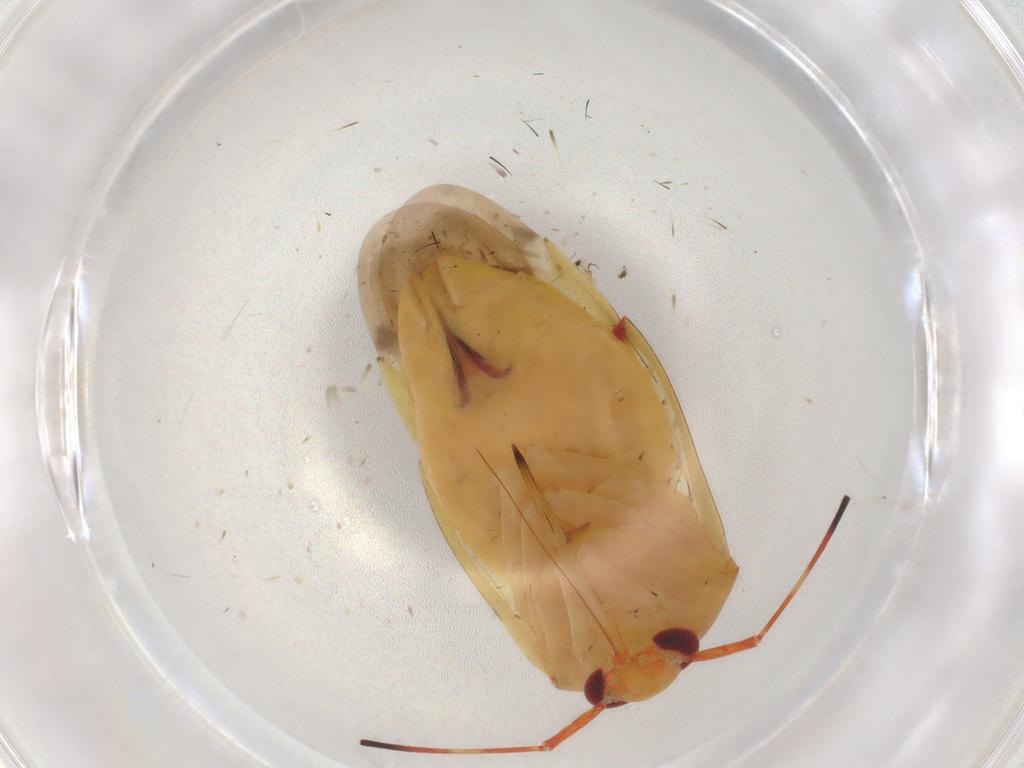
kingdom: Animalia
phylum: Arthropoda
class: Insecta
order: Hemiptera
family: Miridae
